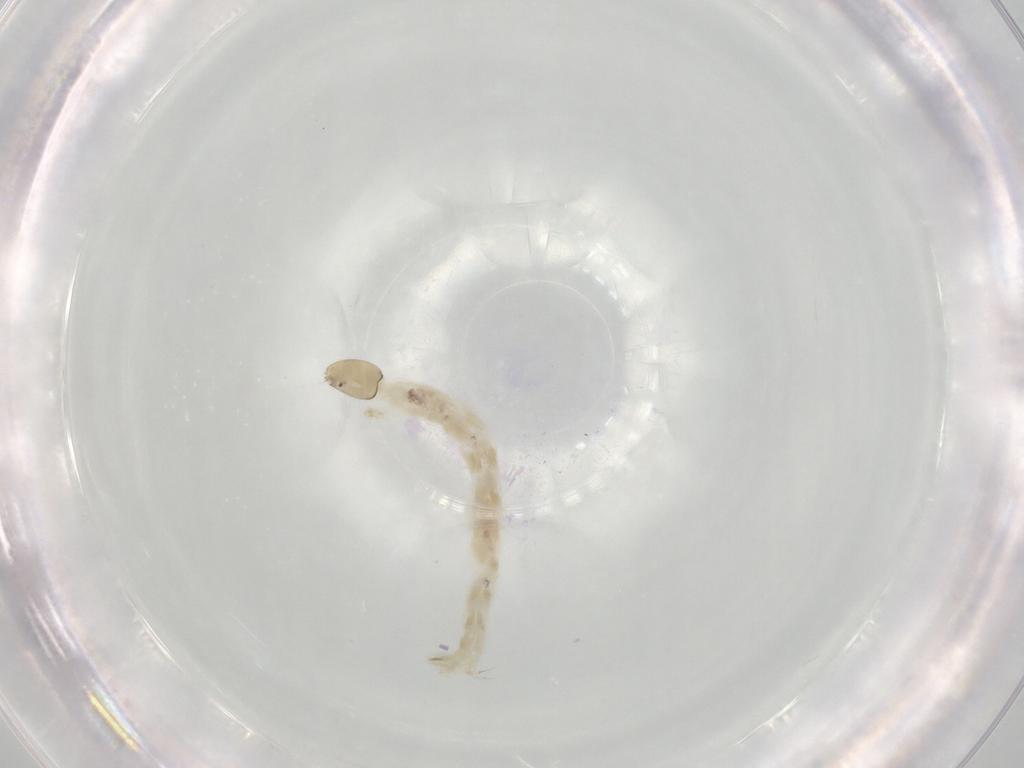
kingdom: Animalia
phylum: Arthropoda
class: Insecta
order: Diptera
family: Chironomidae
